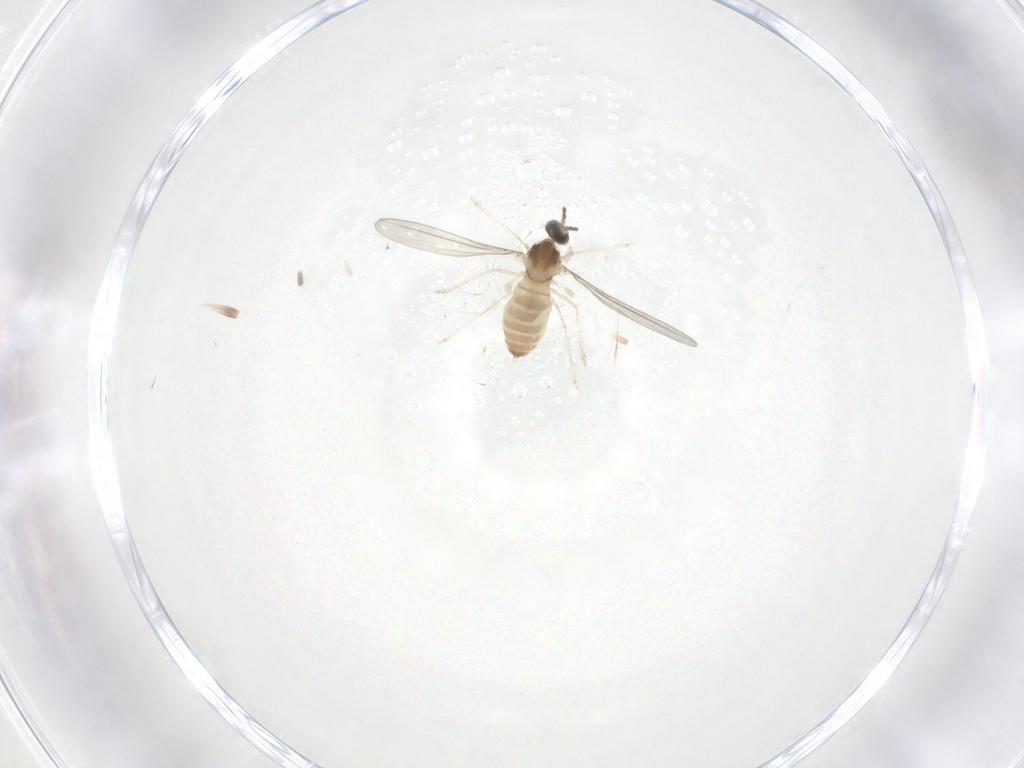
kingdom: Animalia
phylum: Arthropoda
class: Insecta
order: Diptera
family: Cecidomyiidae
